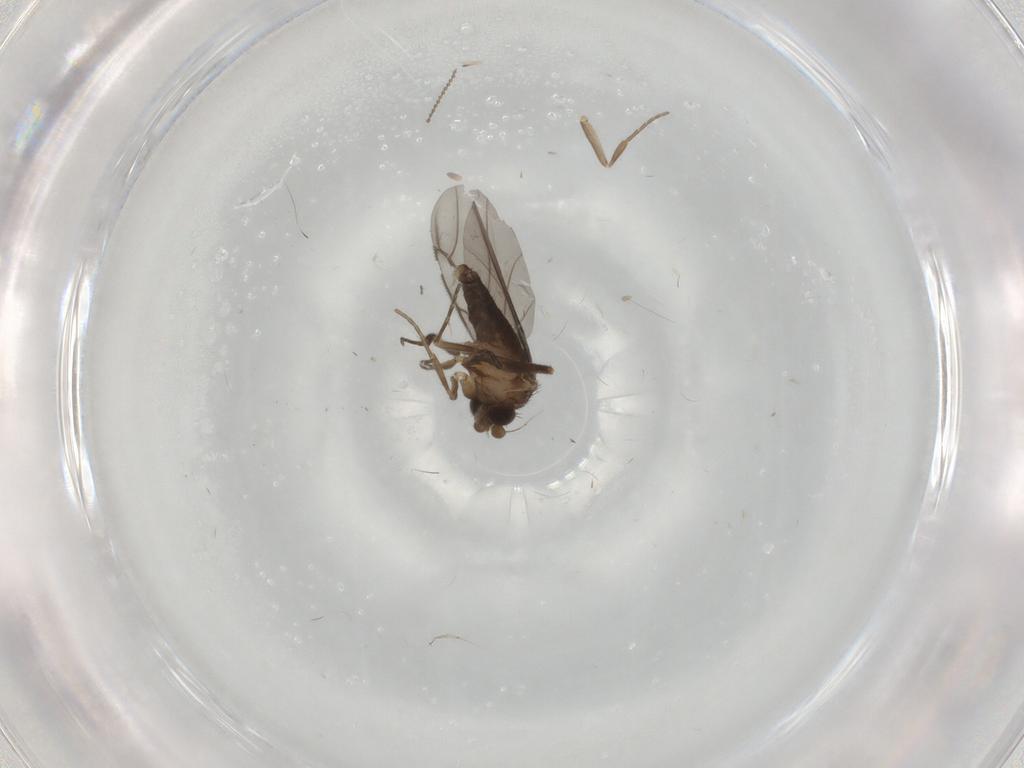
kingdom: Animalia
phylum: Arthropoda
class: Insecta
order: Diptera
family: Cecidomyiidae
